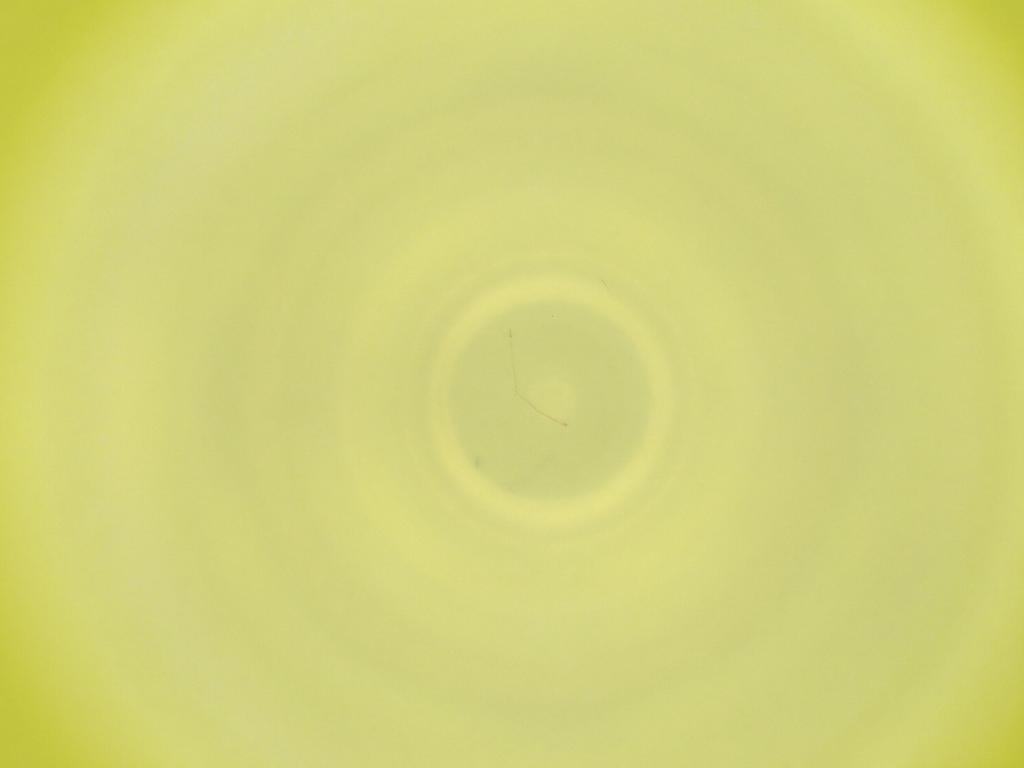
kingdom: Animalia
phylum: Arthropoda
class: Insecta
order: Diptera
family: Cecidomyiidae
